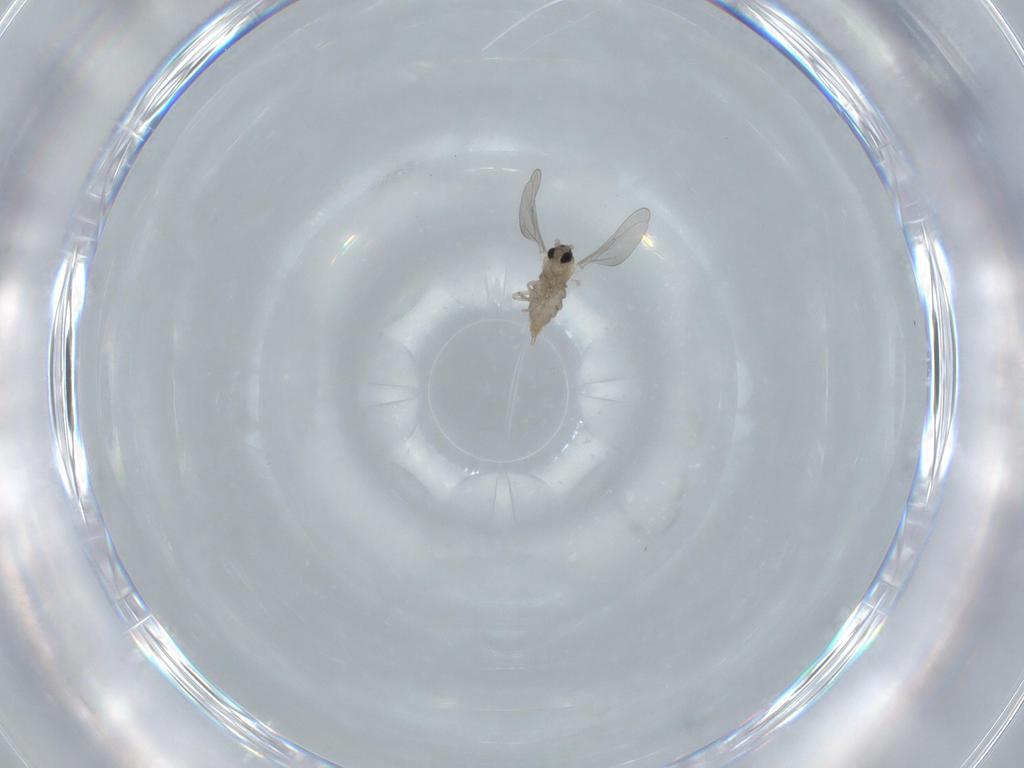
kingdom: Animalia
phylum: Arthropoda
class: Insecta
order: Diptera
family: Cecidomyiidae
